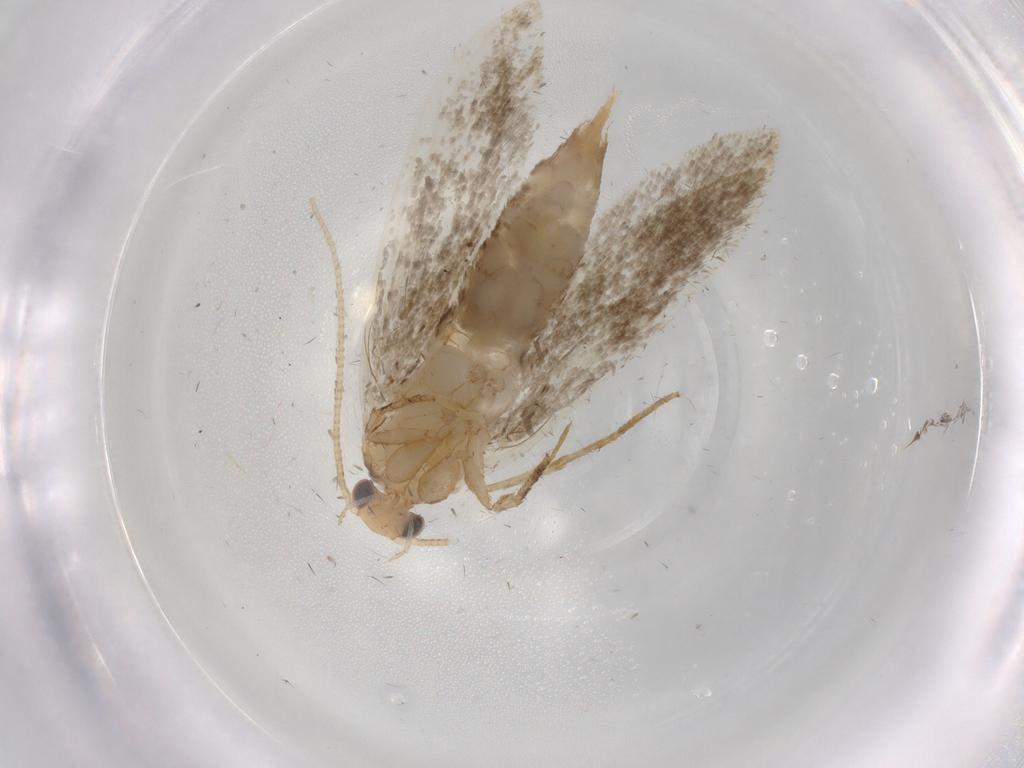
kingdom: Animalia
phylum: Arthropoda
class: Insecta
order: Lepidoptera
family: Tineidae
